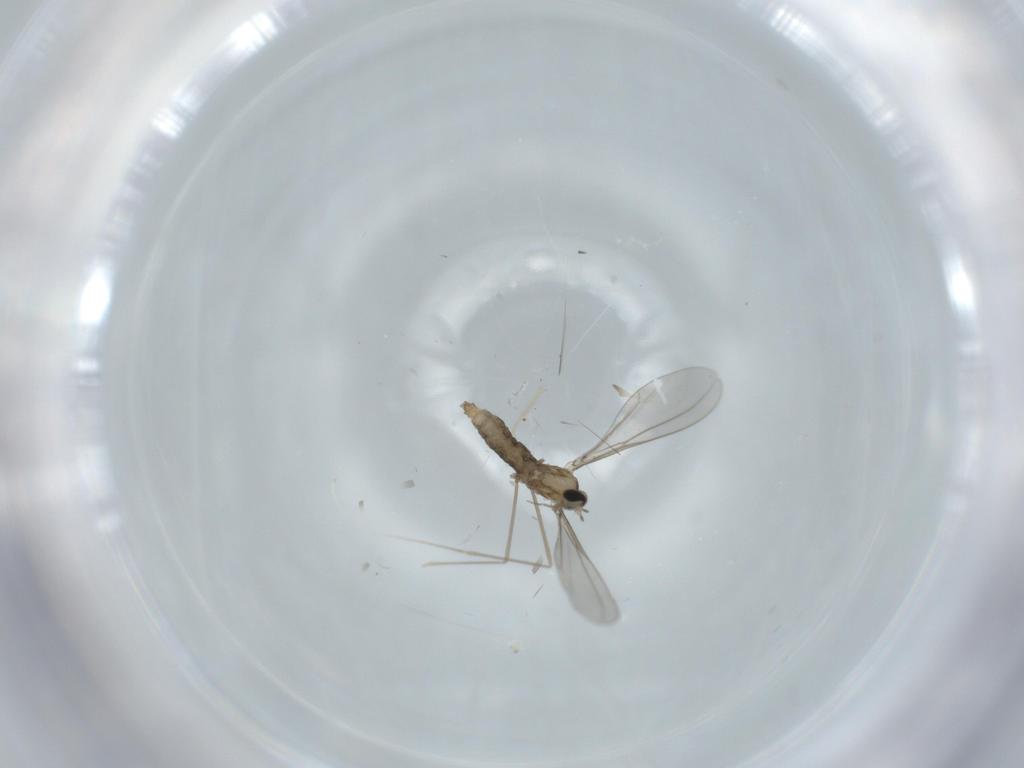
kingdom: Animalia
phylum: Arthropoda
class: Insecta
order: Diptera
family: Cecidomyiidae
